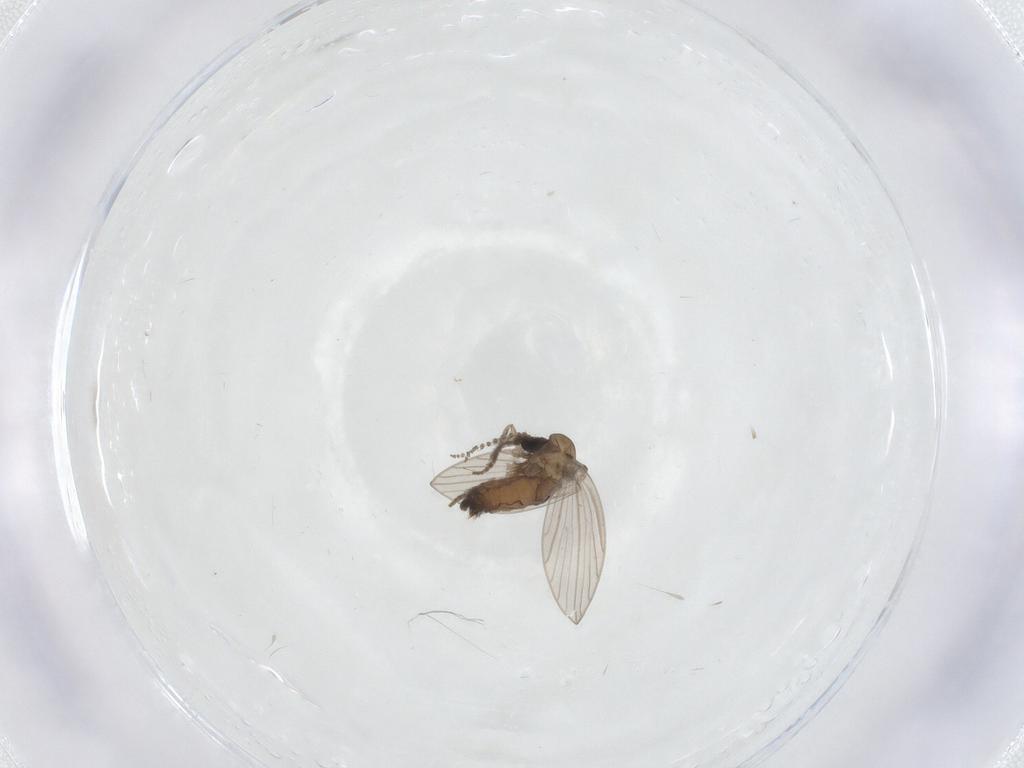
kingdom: Animalia
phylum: Arthropoda
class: Insecta
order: Diptera
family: Psychodidae
